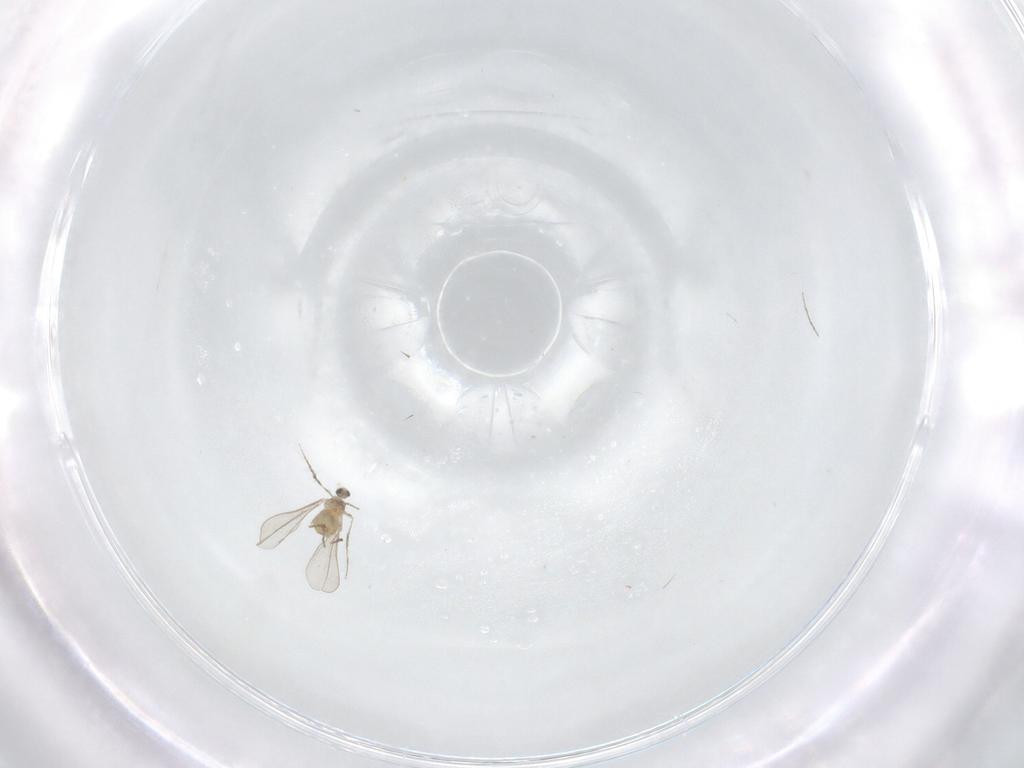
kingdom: Animalia
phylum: Arthropoda
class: Insecta
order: Diptera
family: Cecidomyiidae
